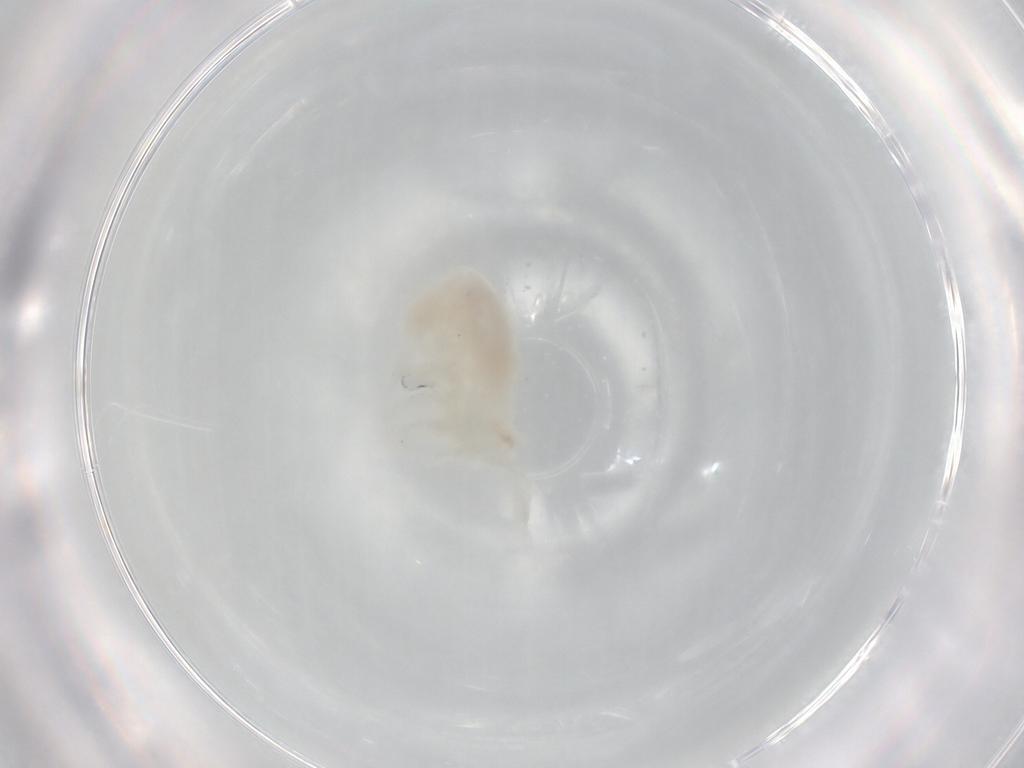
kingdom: Animalia
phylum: Arthropoda
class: Copepoda
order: Calanoida
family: Diaptomidae
